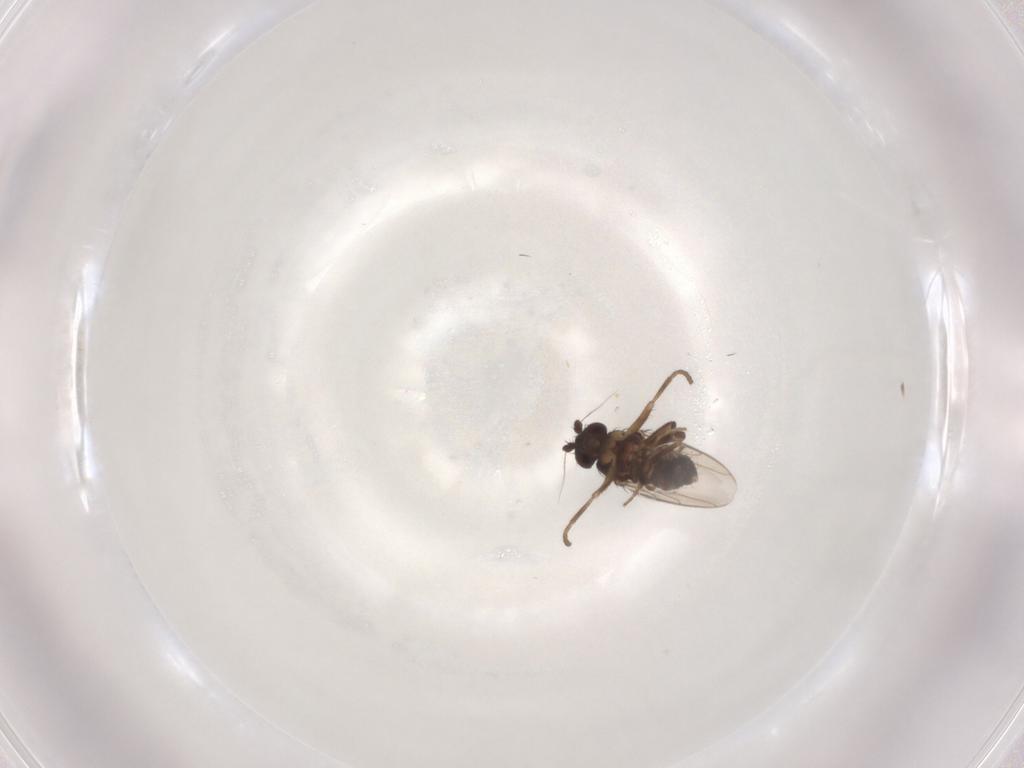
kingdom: Animalia
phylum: Arthropoda
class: Insecta
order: Diptera
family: Sphaeroceridae
